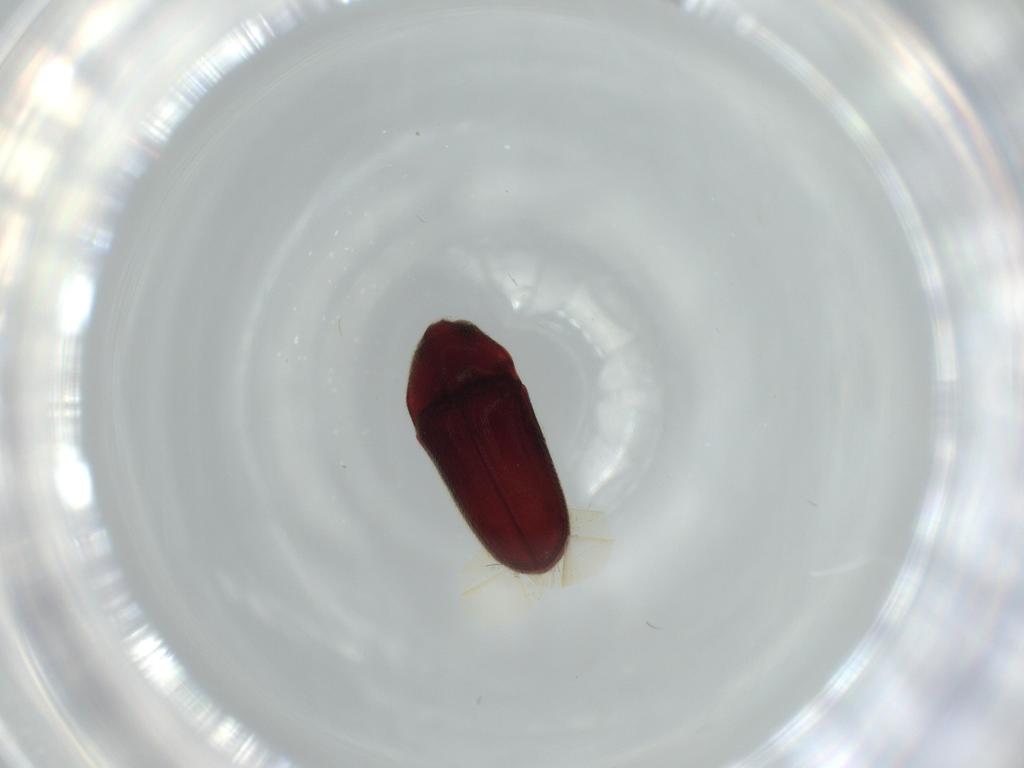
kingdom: Animalia
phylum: Arthropoda
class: Insecta
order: Coleoptera
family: Throscidae
